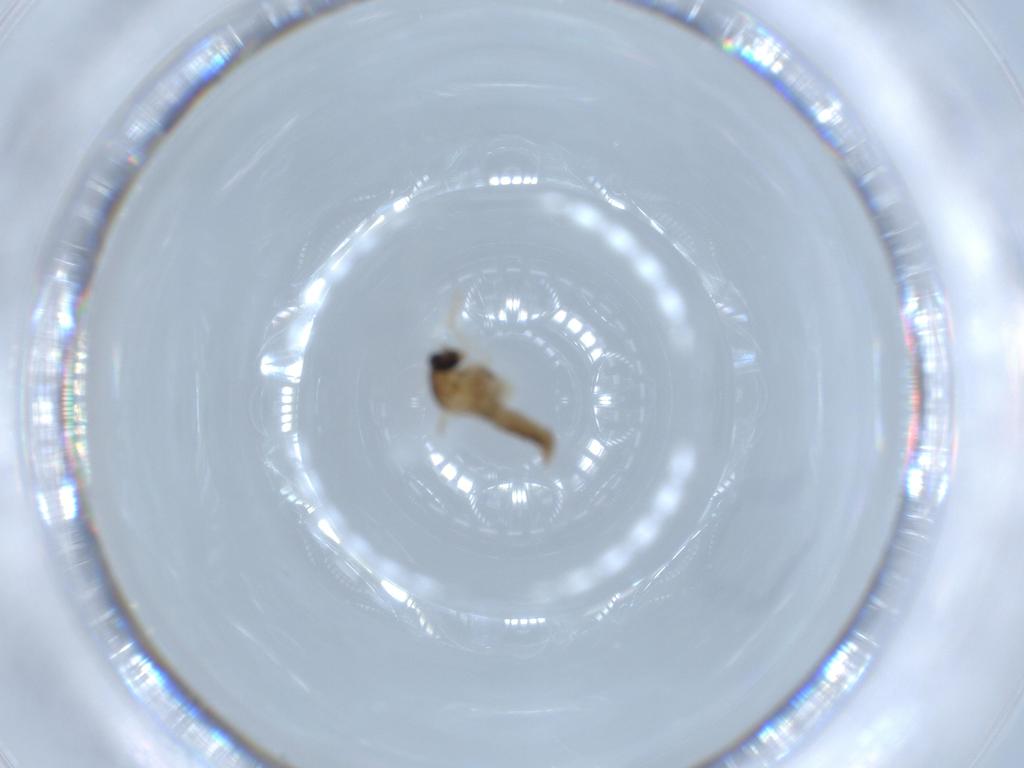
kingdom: Animalia
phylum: Arthropoda
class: Insecta
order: Diptera
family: Cecidomyiidae
